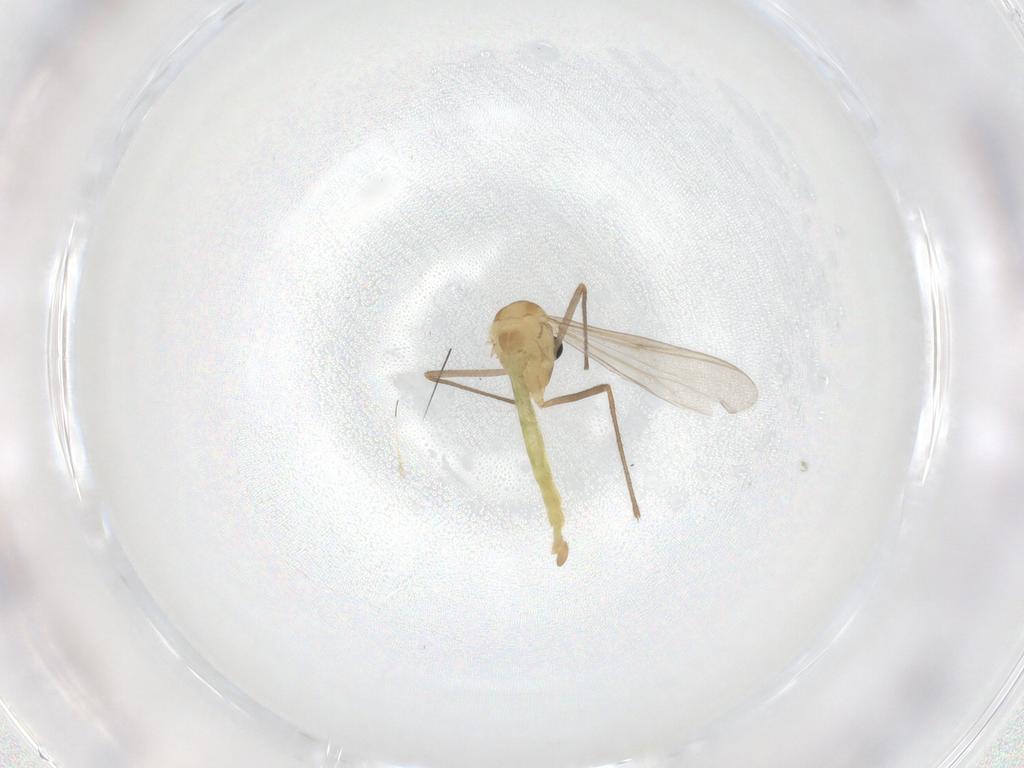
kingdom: Animalia
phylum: Arthropoda
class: Insecta
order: Diptera
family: Chironomidae
